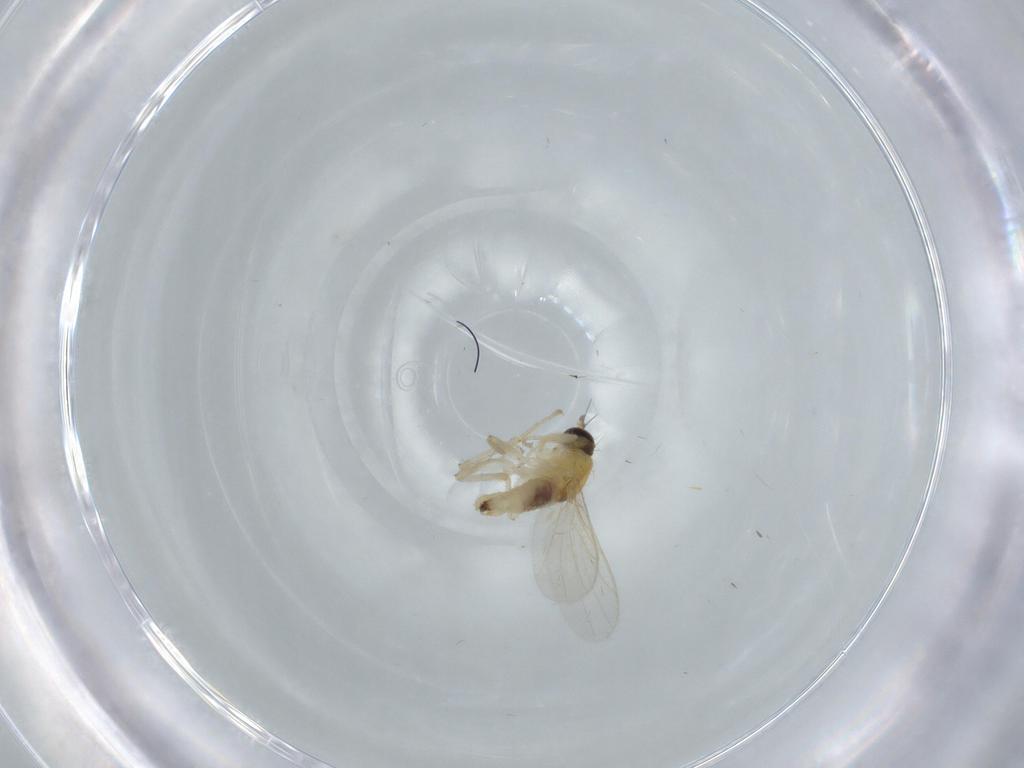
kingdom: Animalia
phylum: Arthropoda
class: Insecta
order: Diptera
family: Hybotidae
